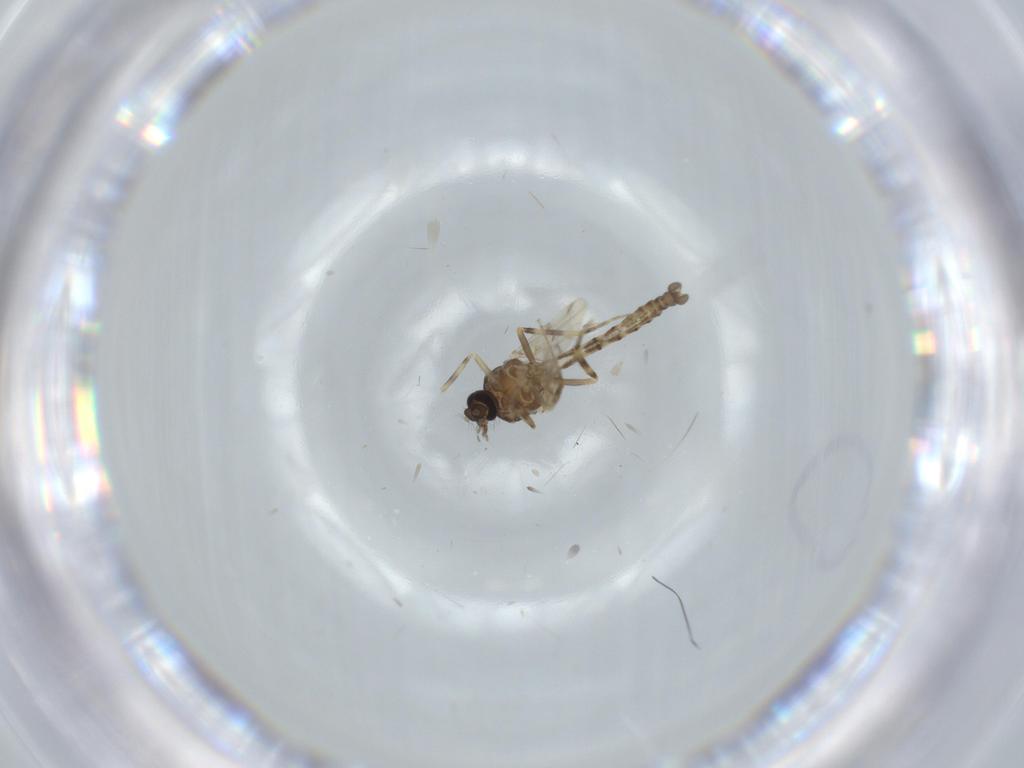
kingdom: Animalia
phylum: Arthropoda
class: Insecta
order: Diptera
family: Ceratopogonidae
